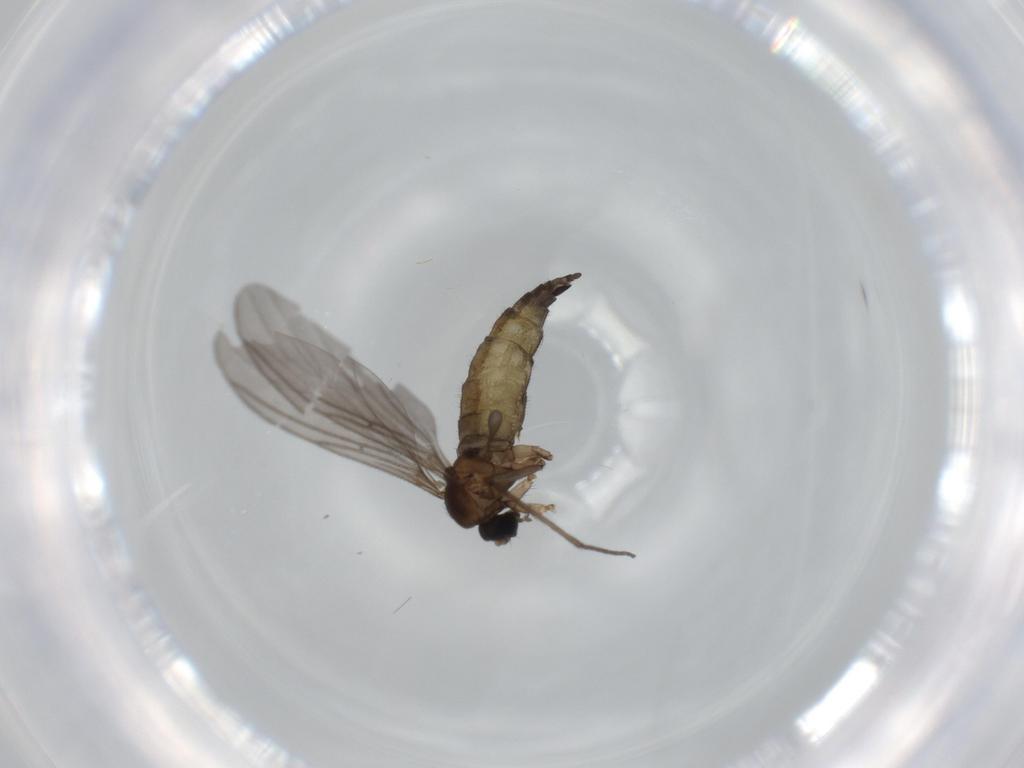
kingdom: Animalia
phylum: Arthropoda
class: Insecta
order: Diptera
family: Sciaridae
